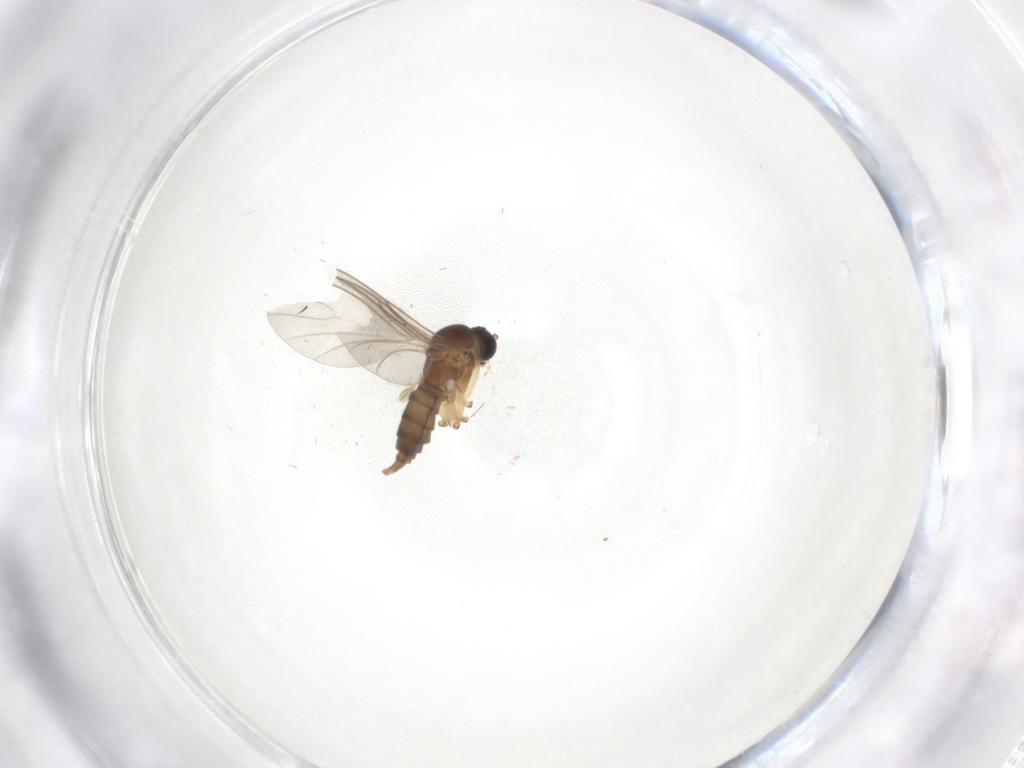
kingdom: Animalia
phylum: Arthropoda
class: Insecta
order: Diptera
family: Sciaridae
